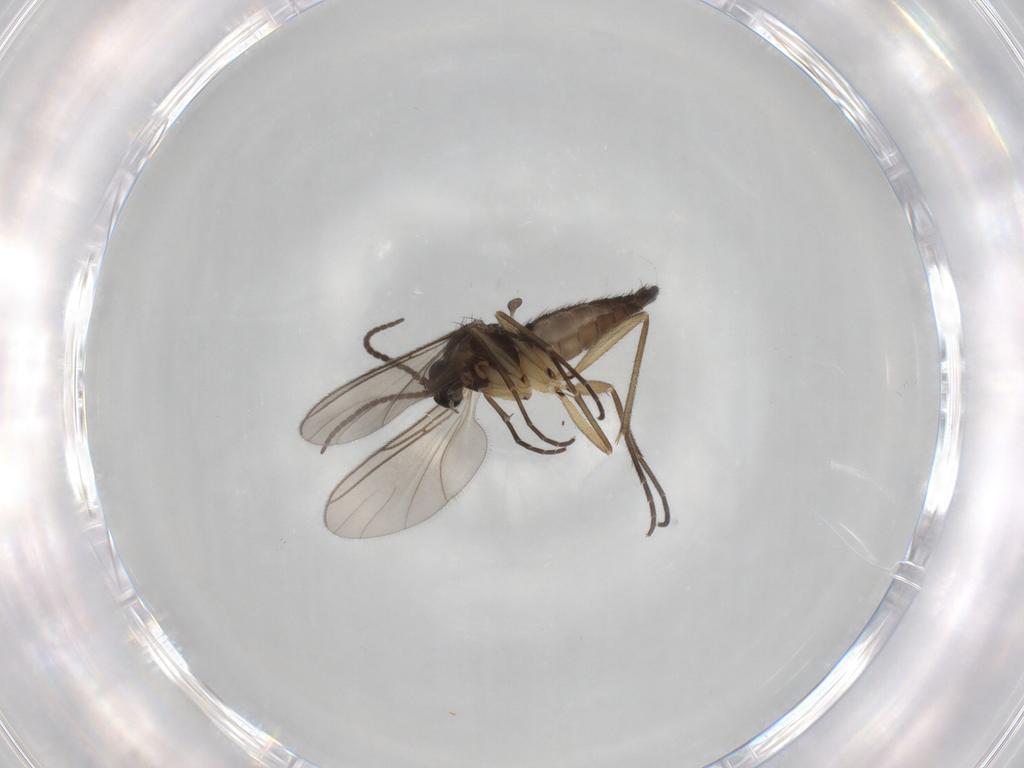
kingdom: Animalia
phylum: Arthropoda
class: Insecta
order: Diptera
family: Sciaridae
